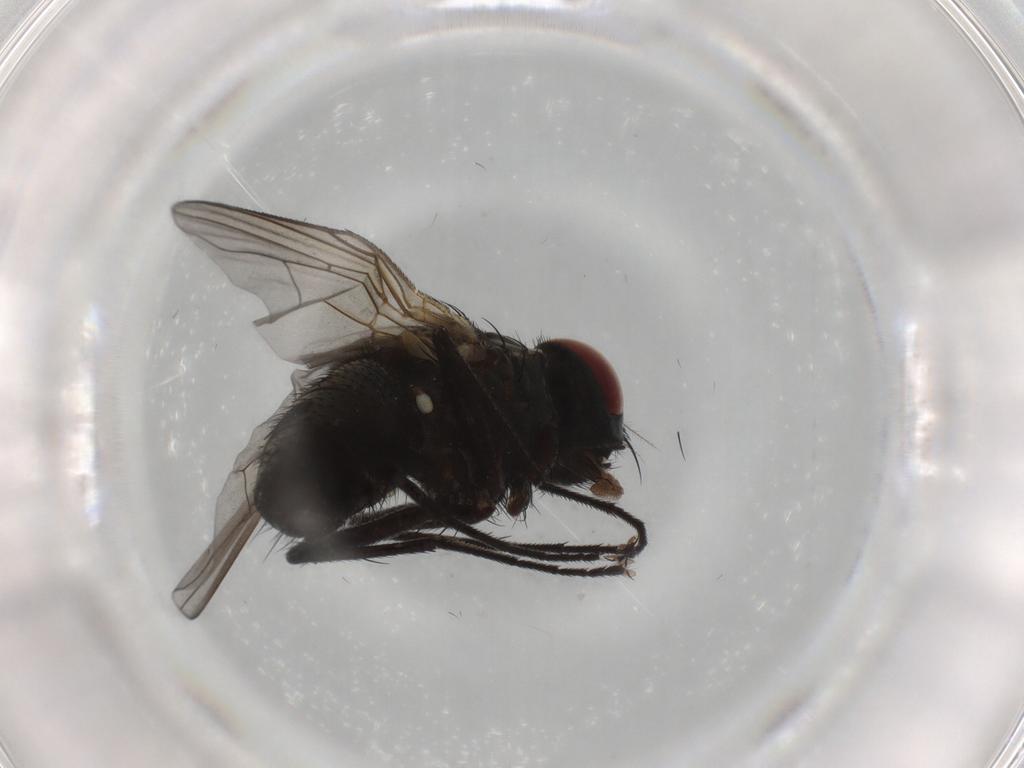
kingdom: Animalia
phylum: Arthropoda
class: Insecta
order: Diptera
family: Muscidae
